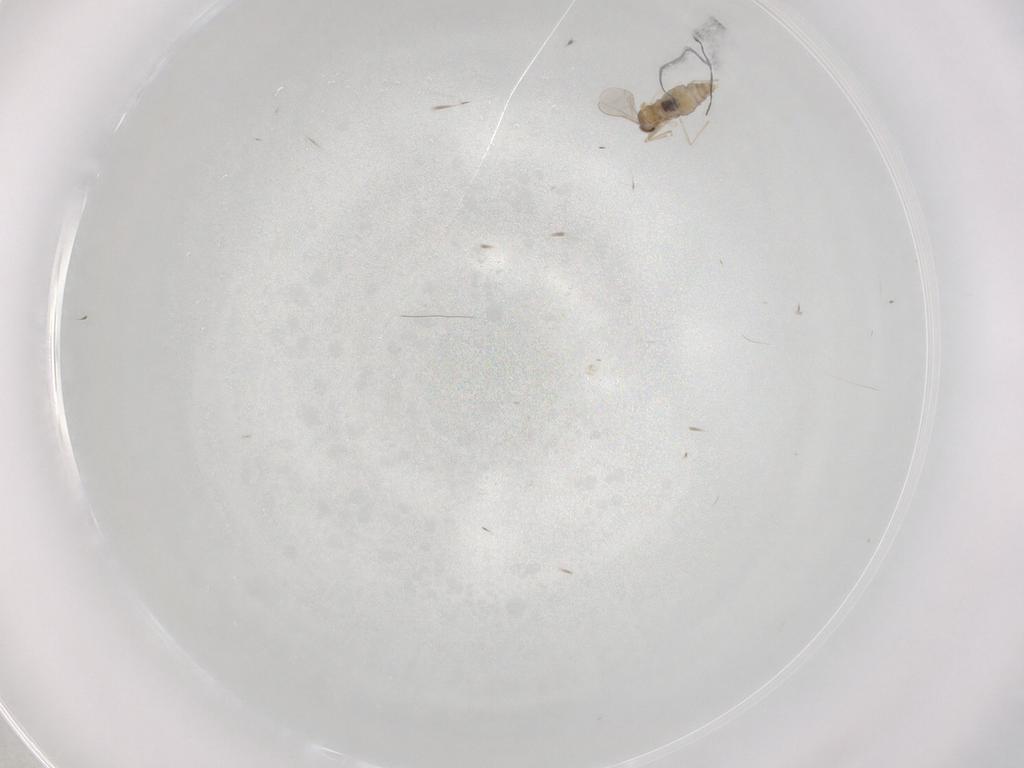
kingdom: Animalia
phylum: Arthropoda
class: Insecta
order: Diptera
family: Cecidomyiidae
